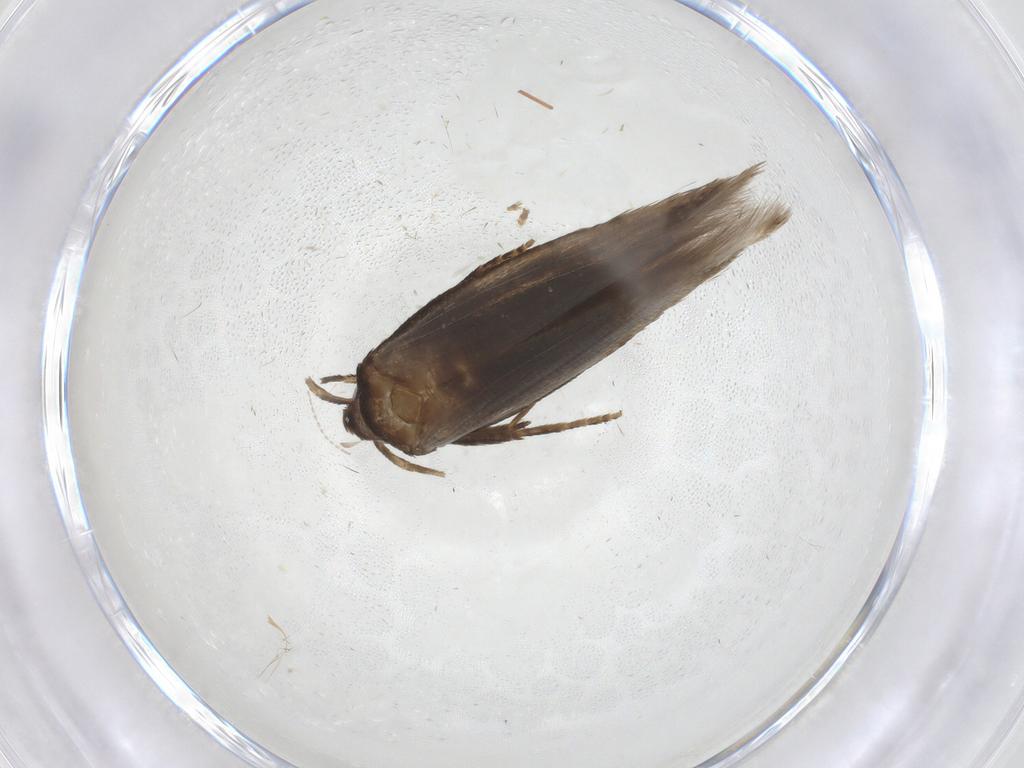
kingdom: Animalia
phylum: Arthropoda
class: Insecta
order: Lepidoptera
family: Cosmopterigidae
